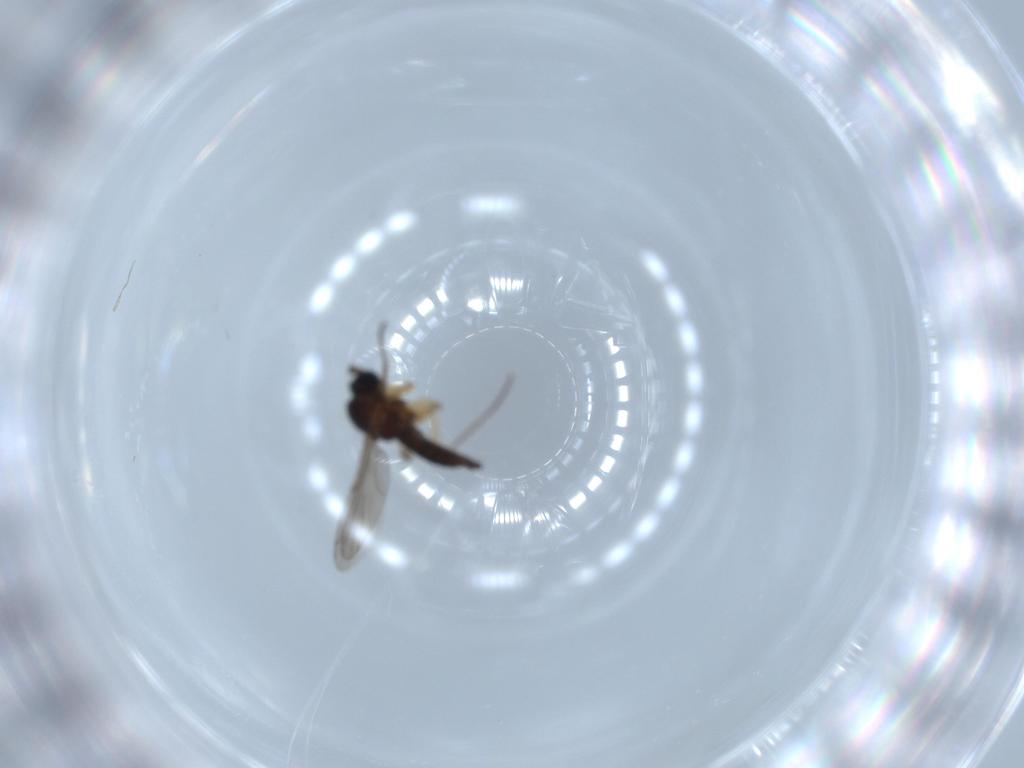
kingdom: Animalia
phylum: Arthropoda
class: Insecta
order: Diptera
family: Sciaridae
